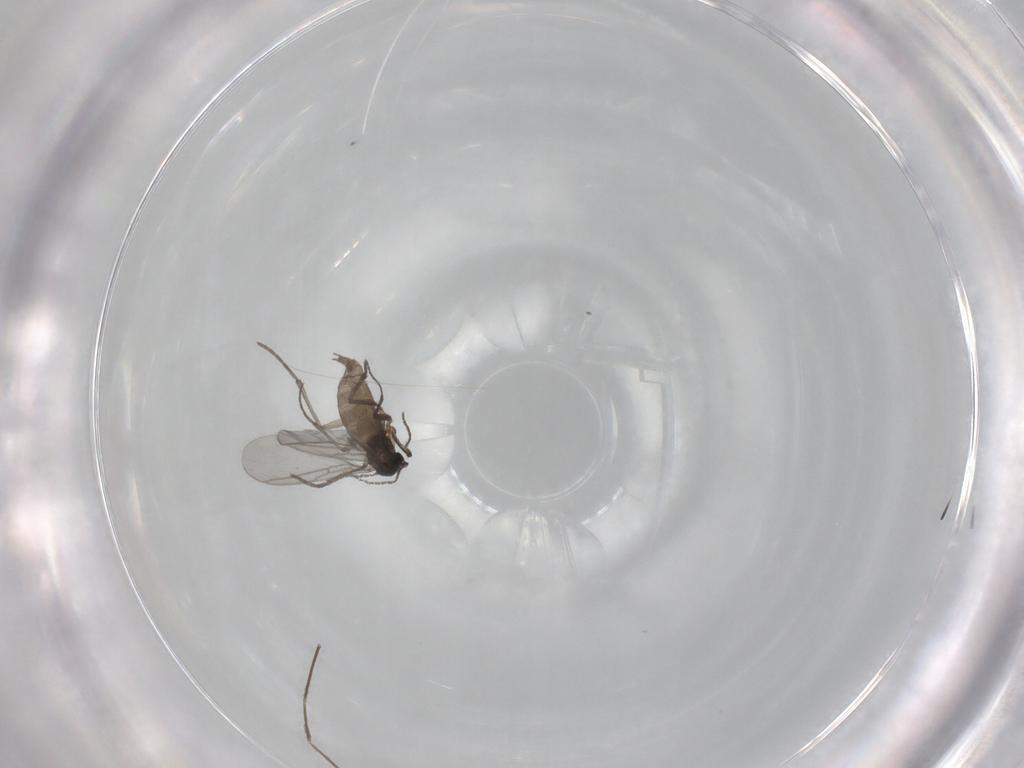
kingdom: Animalia
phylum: Arthropoda
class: Insecta
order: Diptera
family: Sciaridae
